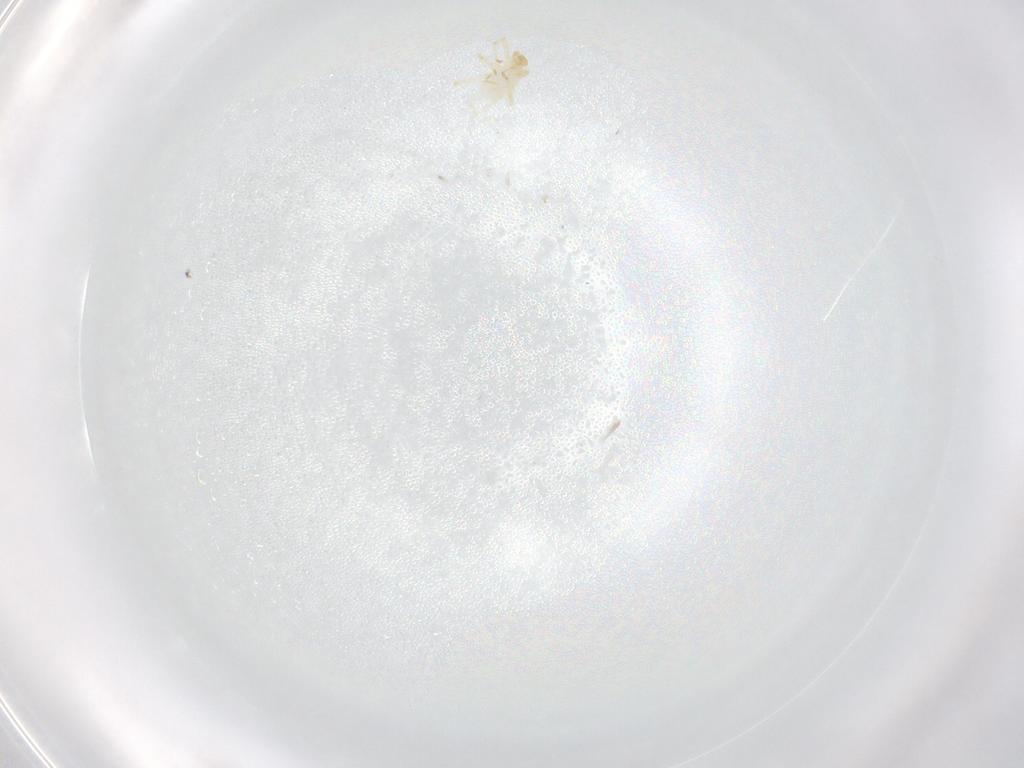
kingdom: Animalia
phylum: Arthropoda
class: Arachnida
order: Trombidiformes
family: Erythraeidae
